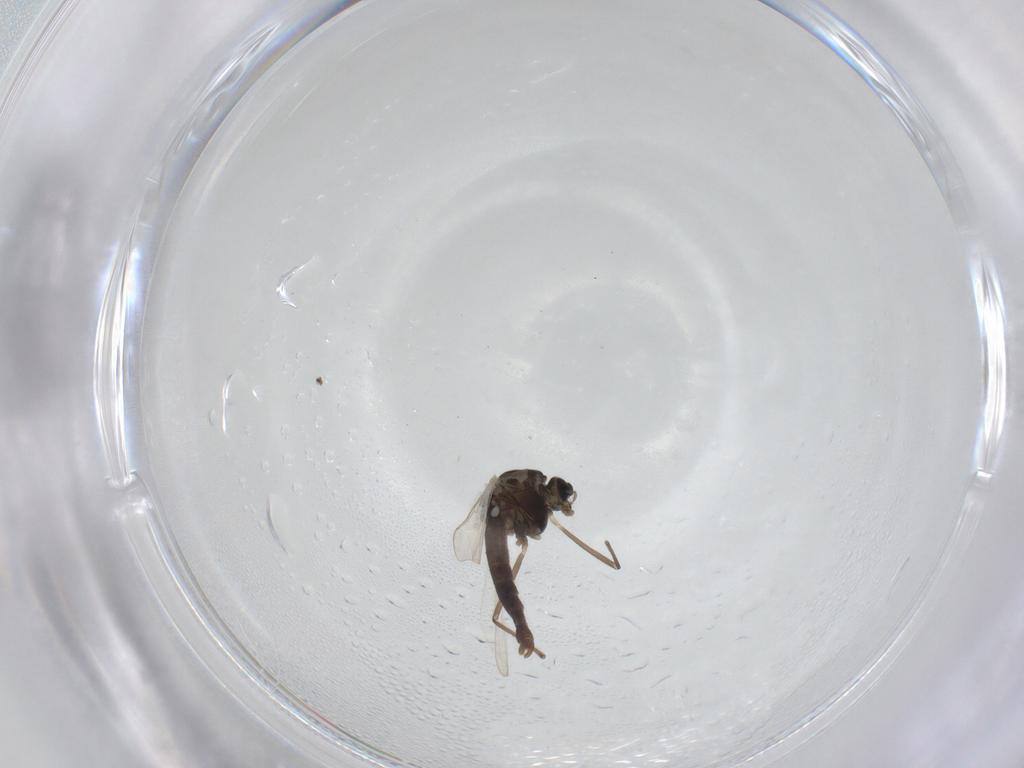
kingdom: Animalia
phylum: Arthropoda
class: Insecta
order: Diptera
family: Chironomidae
